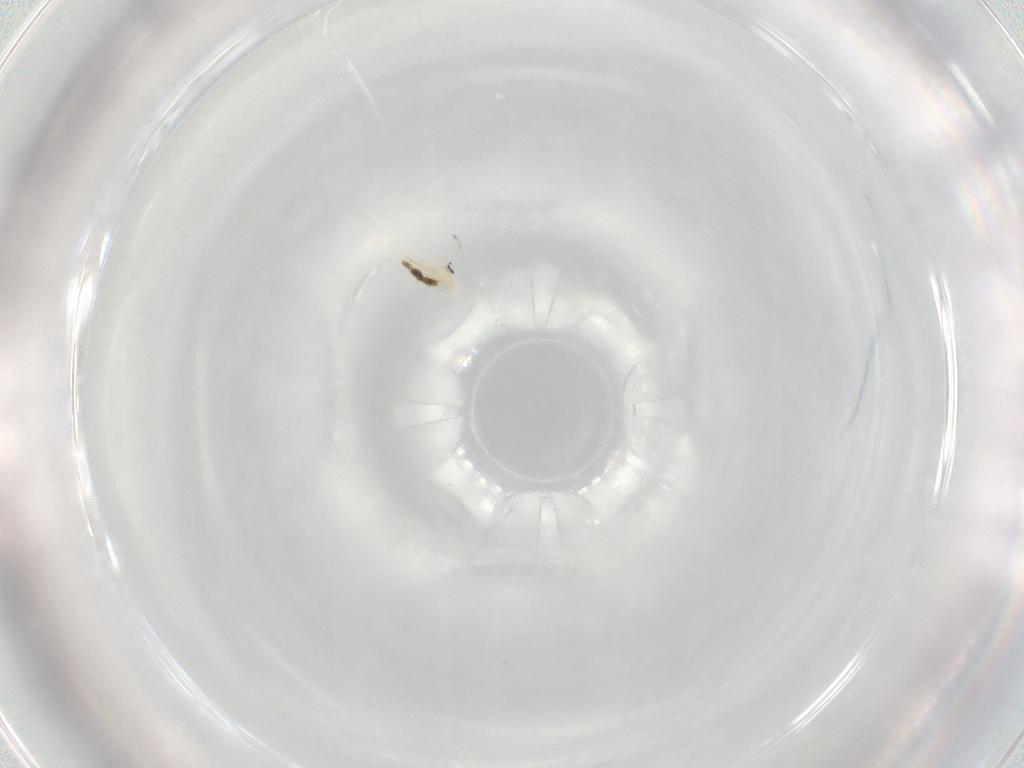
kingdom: Animalia
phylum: Arthropoda
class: Collembola
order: Entomobryomorpha
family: Entomobryidae
